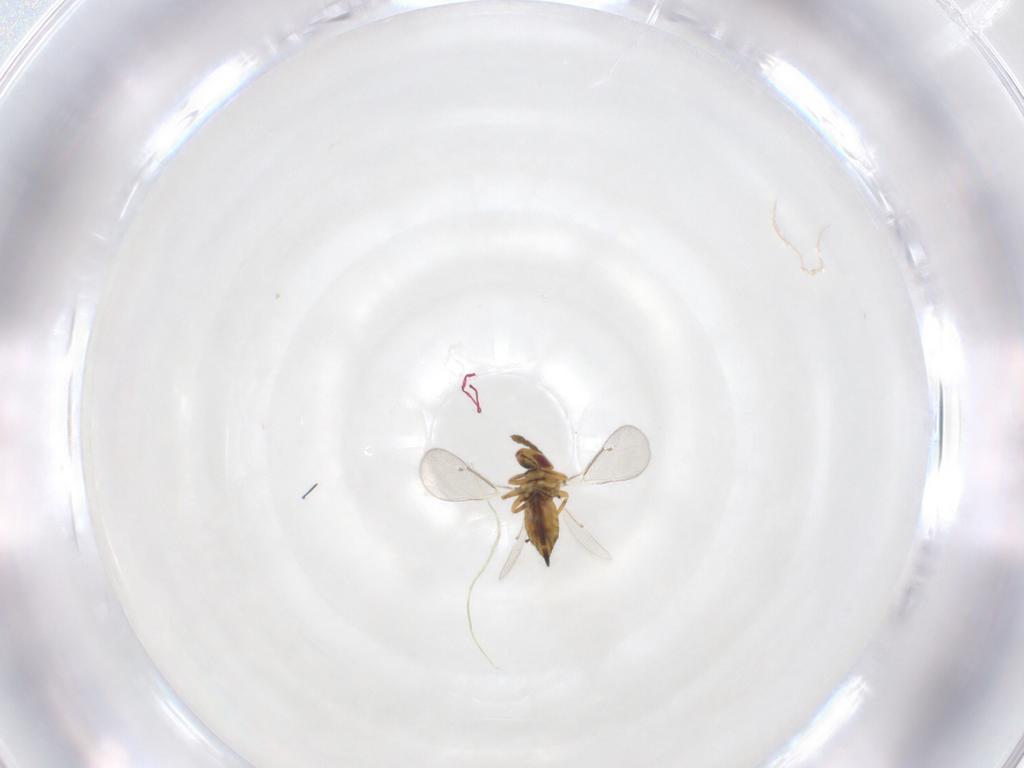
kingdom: Animalia
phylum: Arthropoda
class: Insecta
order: Hymenoptera
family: Eulophidae
